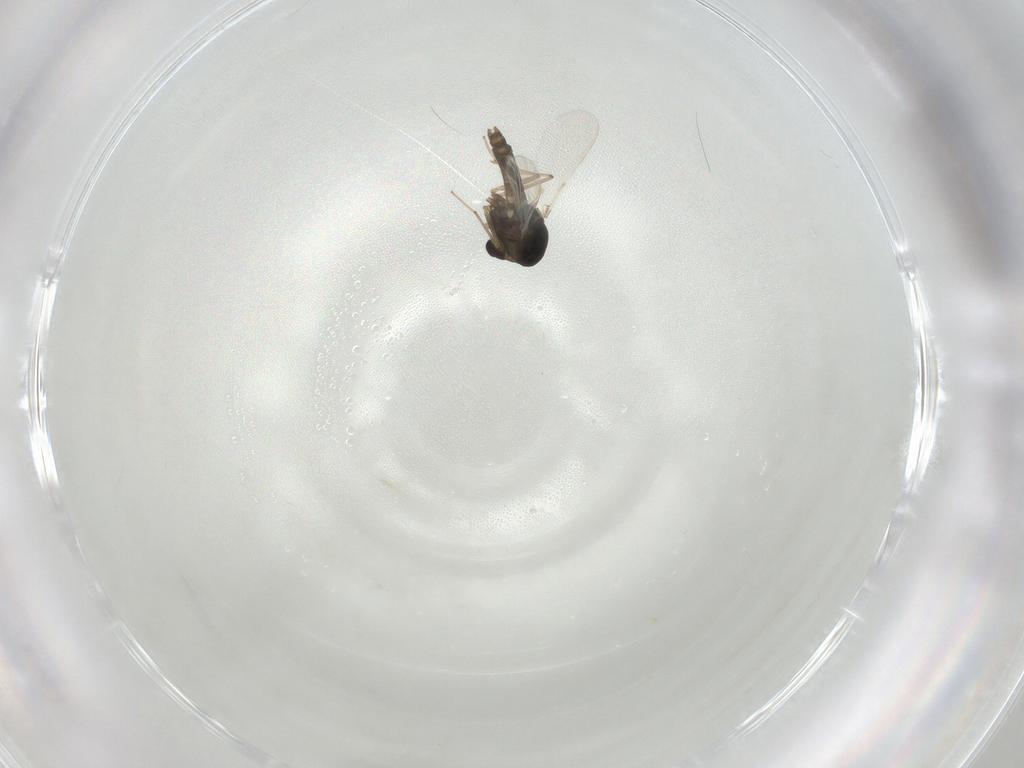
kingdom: Animalia
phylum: Arthropoda
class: Insecta
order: Diptera
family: Chironomidae
